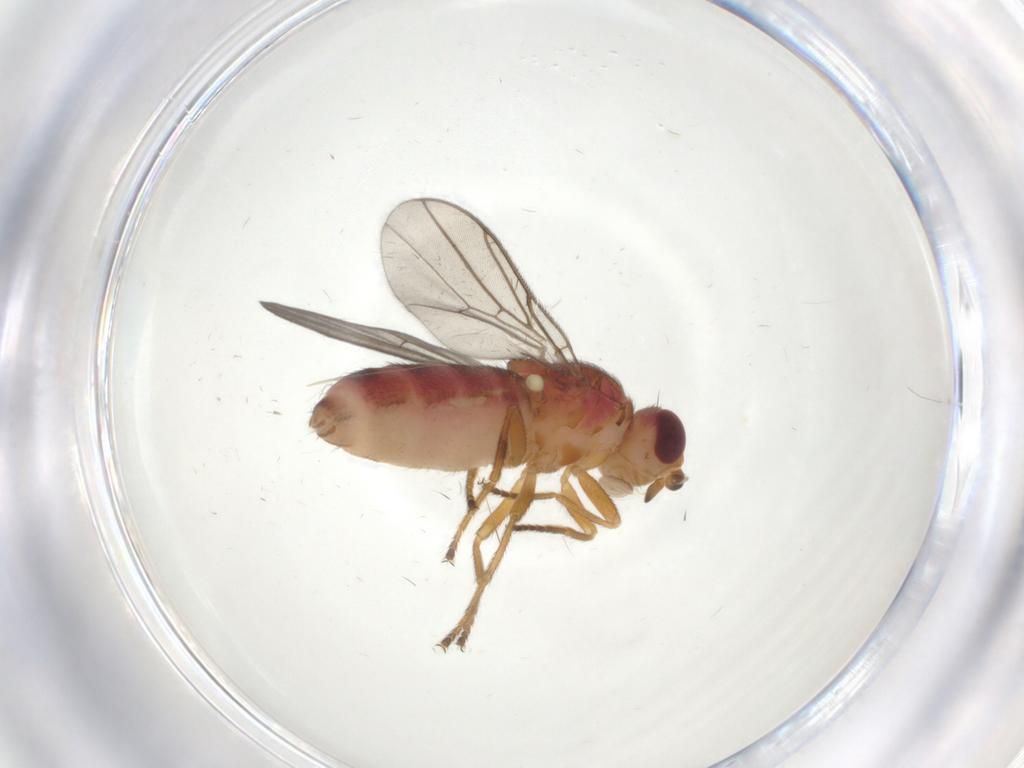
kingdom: Animalia
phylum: Arthropoda
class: Insecta
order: Diptera
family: Chloropidae
